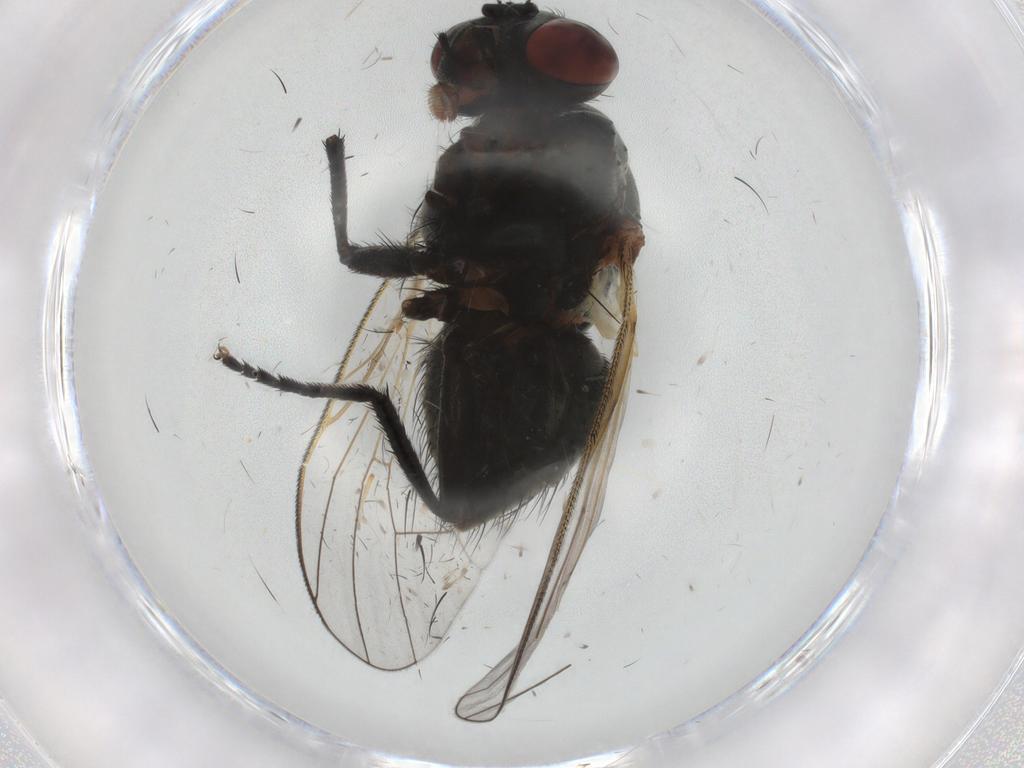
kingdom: Animalia
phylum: Arthropoda
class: Insecta
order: Diptera
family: Muscidae
